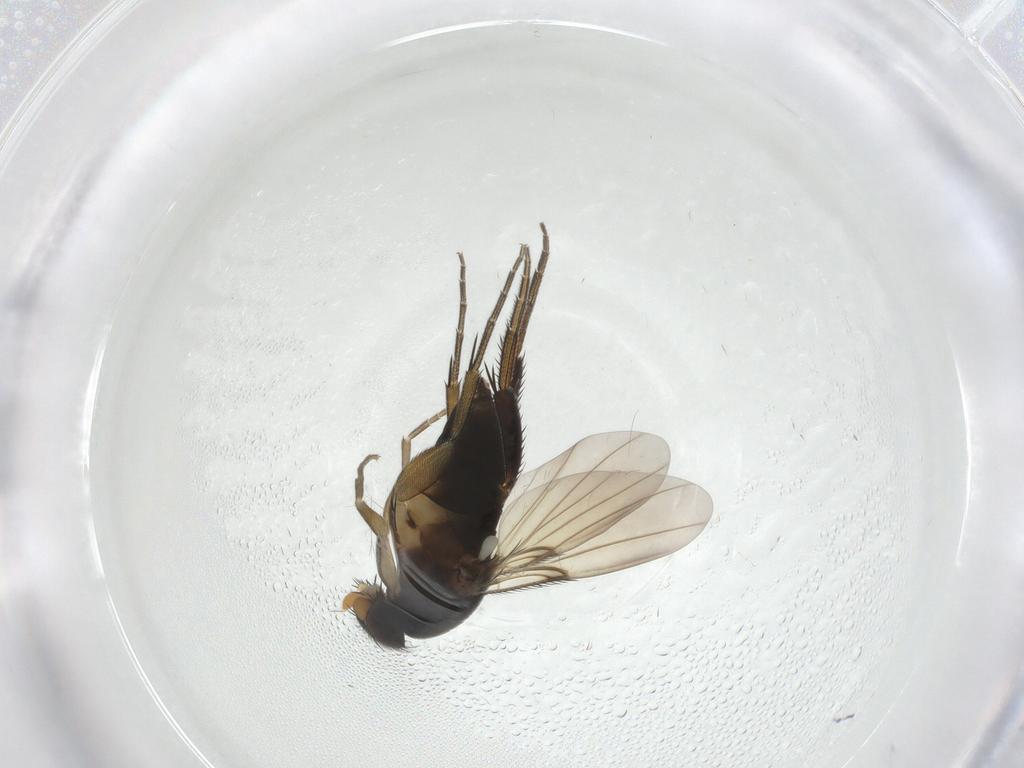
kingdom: Animalia
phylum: Arthropoda
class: Insecta
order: Diptera
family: Phoridae
